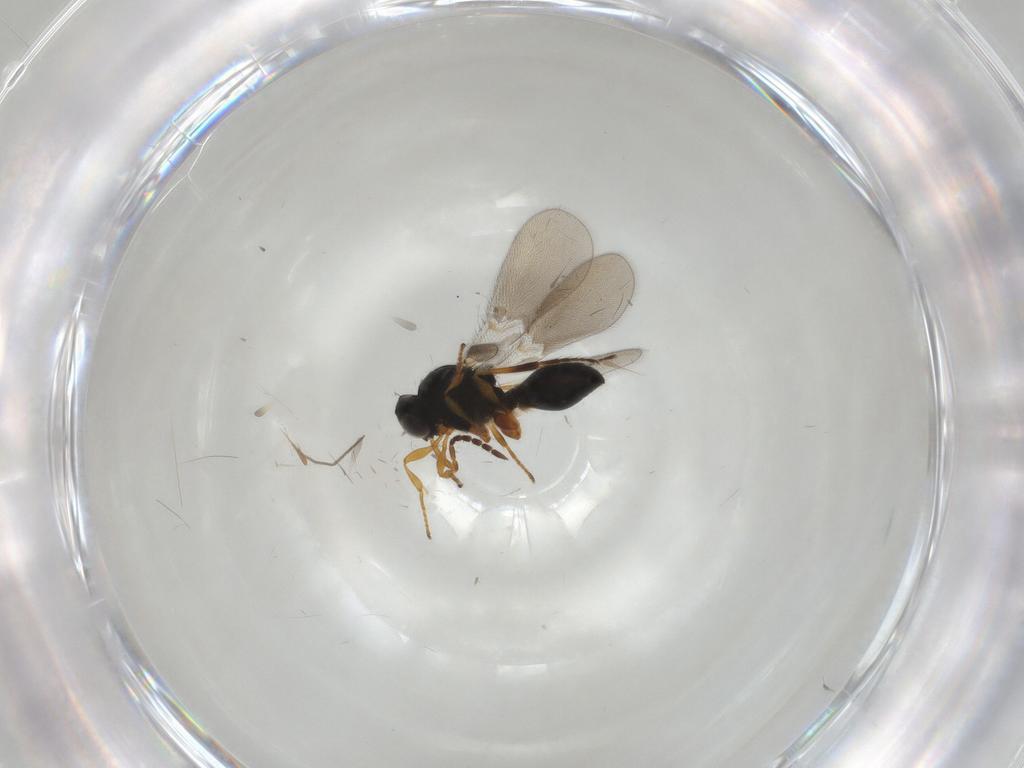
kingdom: Animalia
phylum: Arthropoda
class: Insecta
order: Hymenoptera
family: Platygastridae
